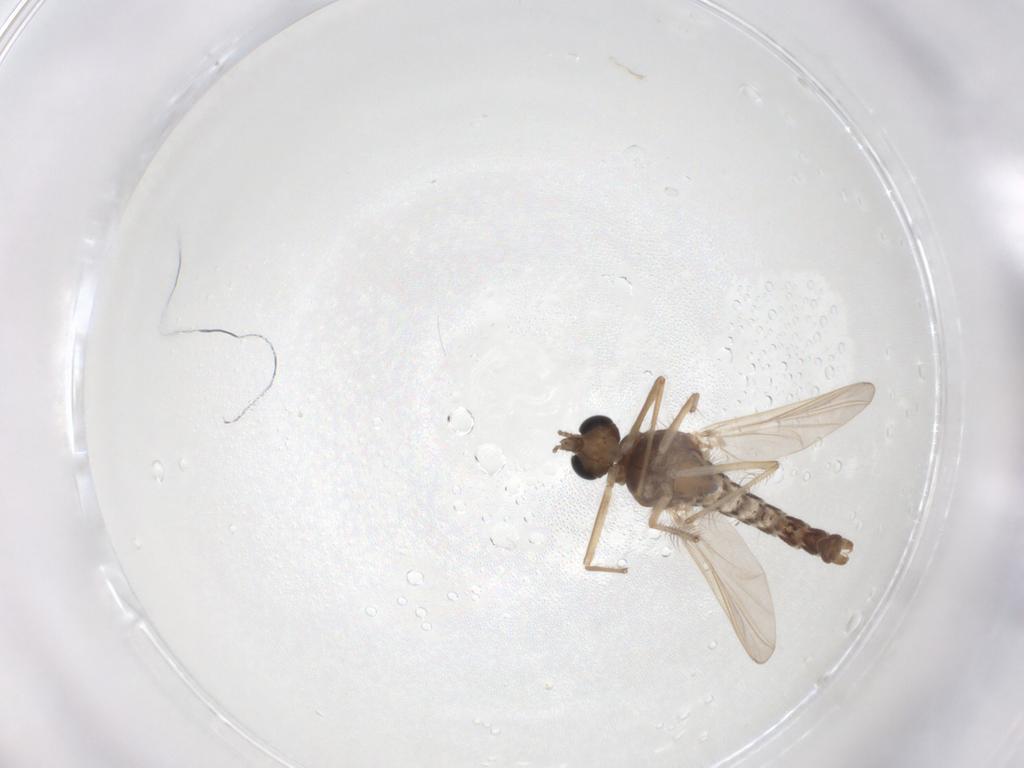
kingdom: Animalia
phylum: Arthropoda
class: Insecta
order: Diptera
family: Chironomidae
